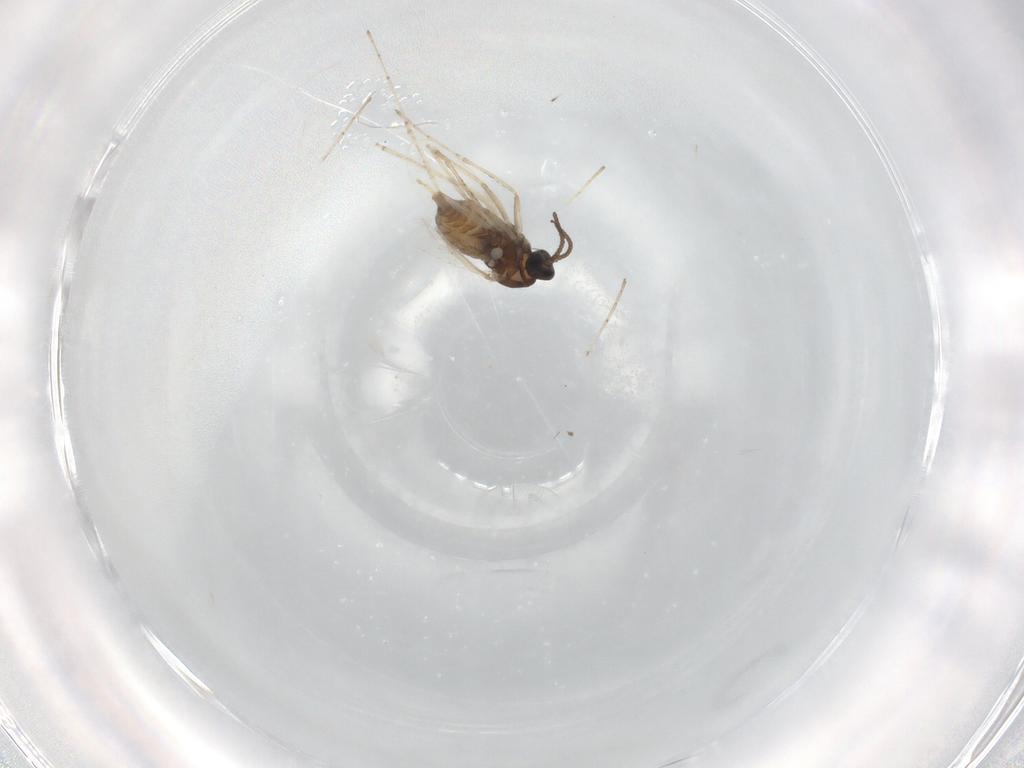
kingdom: Animalia
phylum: Arthropoda
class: Insecta
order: Diptera
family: Cecidomyiidae
